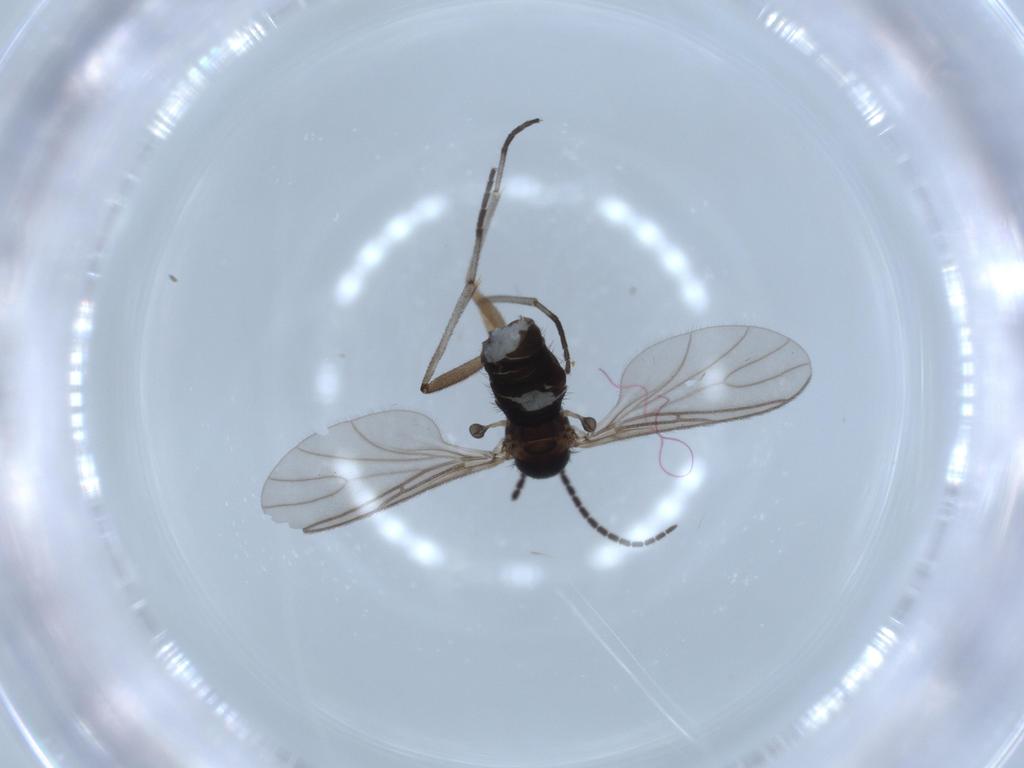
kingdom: Animalia
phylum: Arthropoda
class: Insecta
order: Diptera
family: Sciaridae
